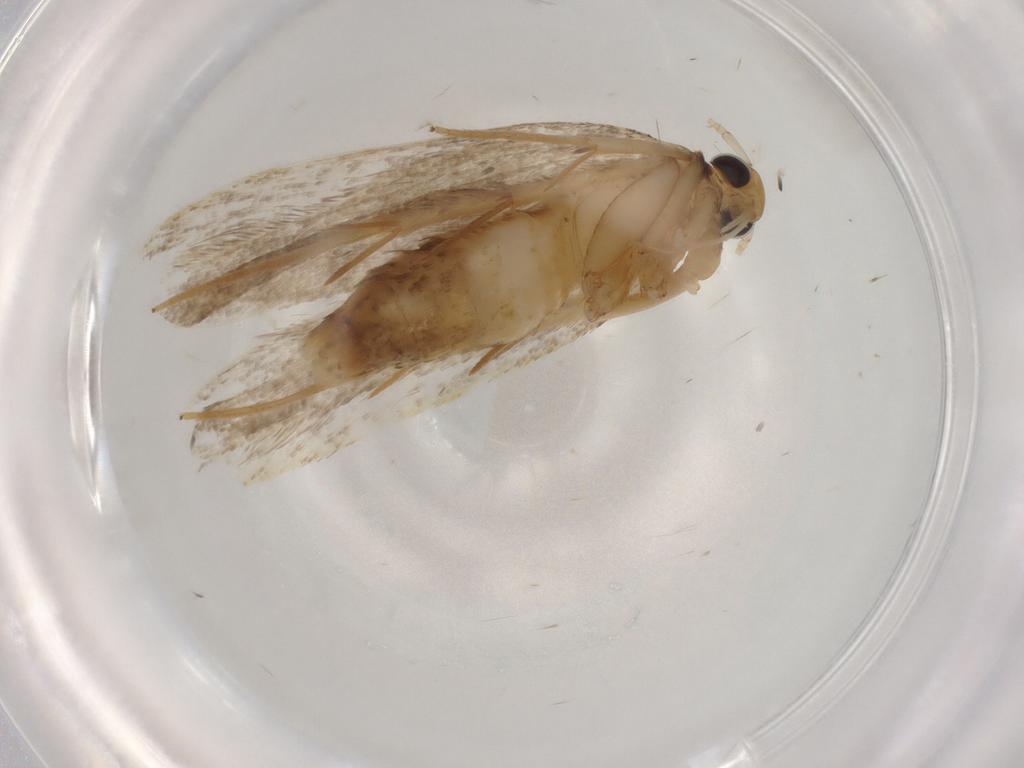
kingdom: Animalia
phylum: Arthropoda
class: Insecta
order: Lepidoptera
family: Lecithoceridae
